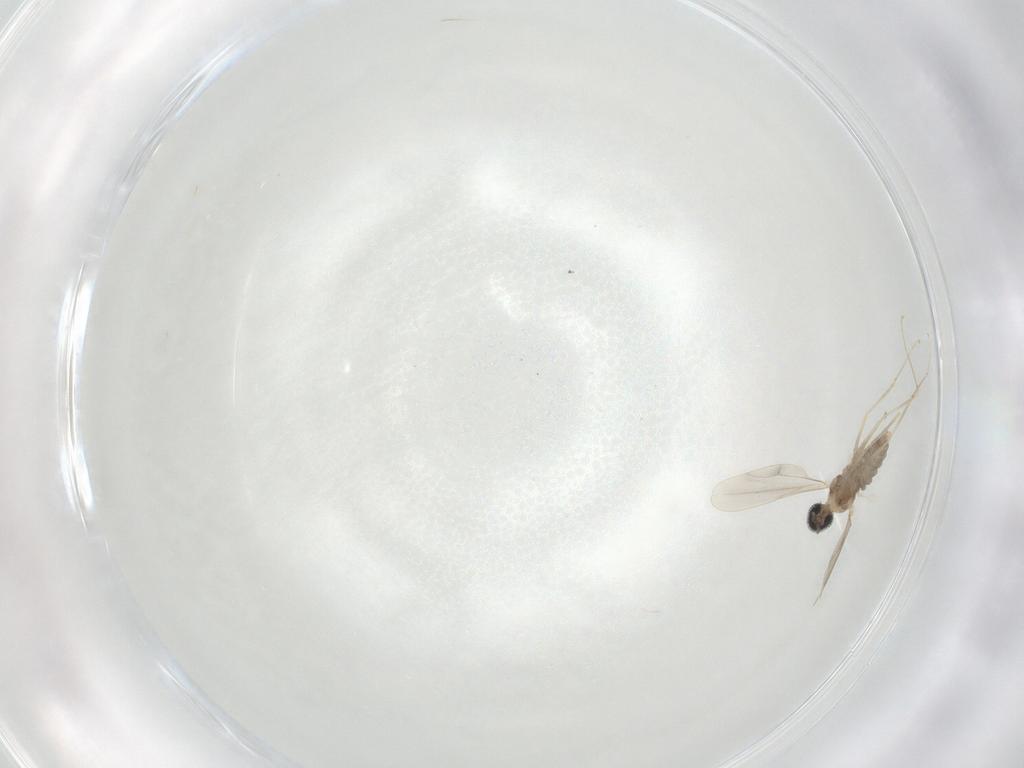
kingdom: Animalia
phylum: Arthropoda
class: Insecta
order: Diptera
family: Cecidomyiidae
